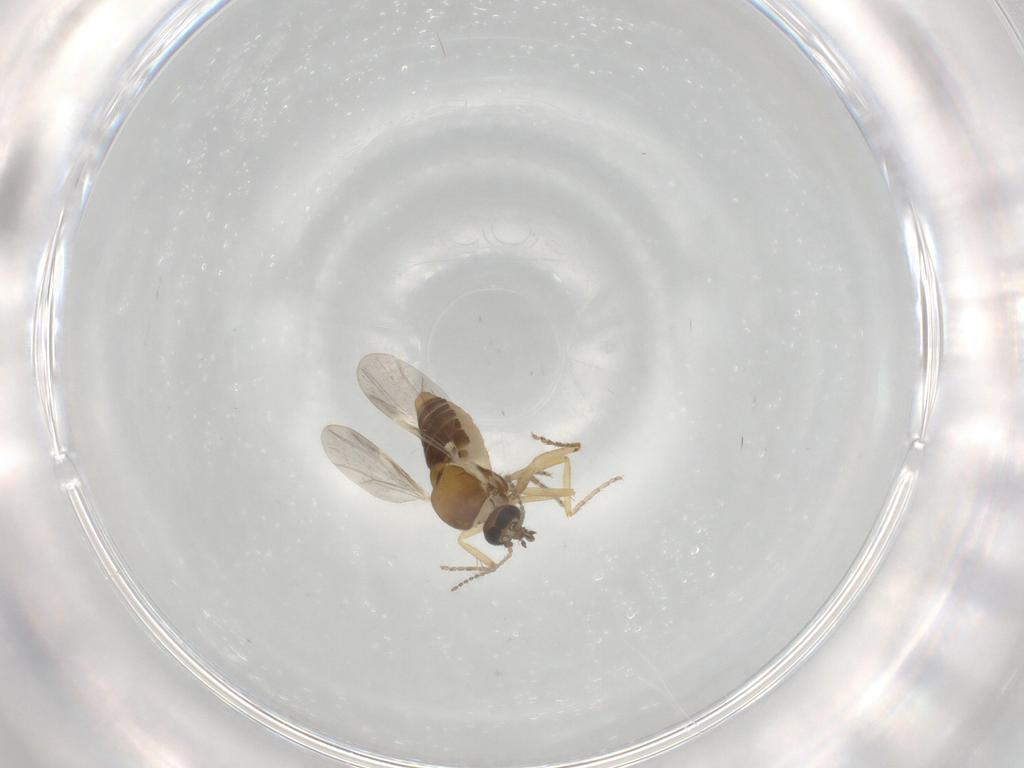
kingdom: Animalia
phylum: Arthropoda
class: Insecta
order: Diptera
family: Ceratopogonidae
